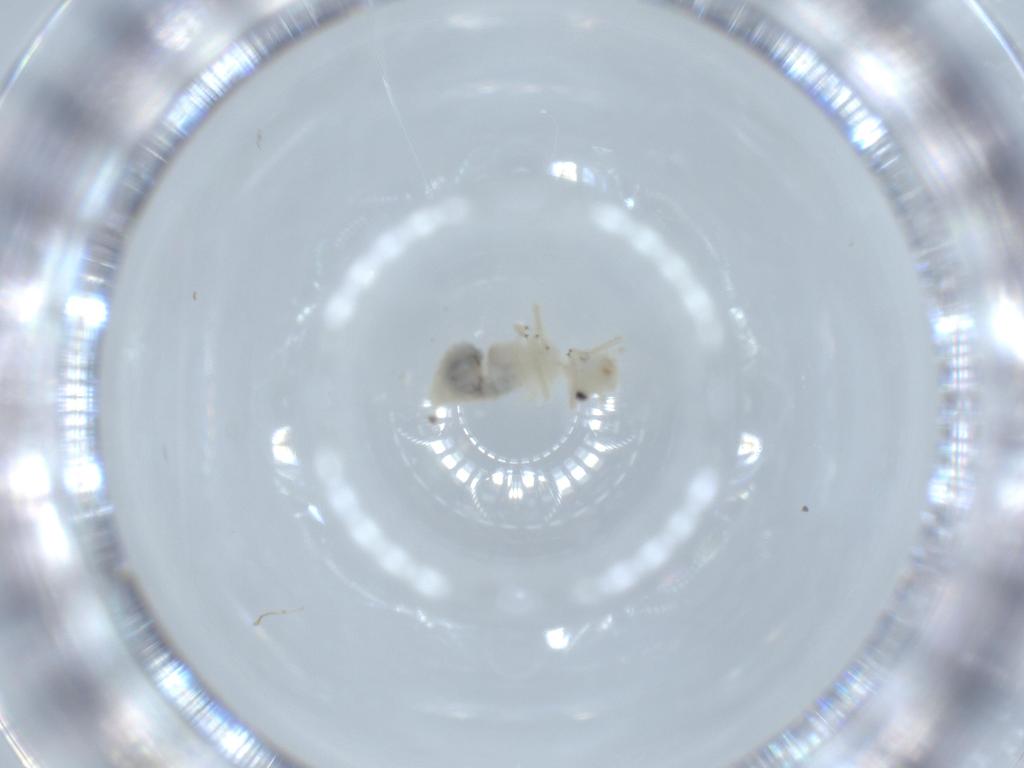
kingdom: Animalia
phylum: Arthropoda
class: Insecta
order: Psocodea
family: Caeciliusidae
